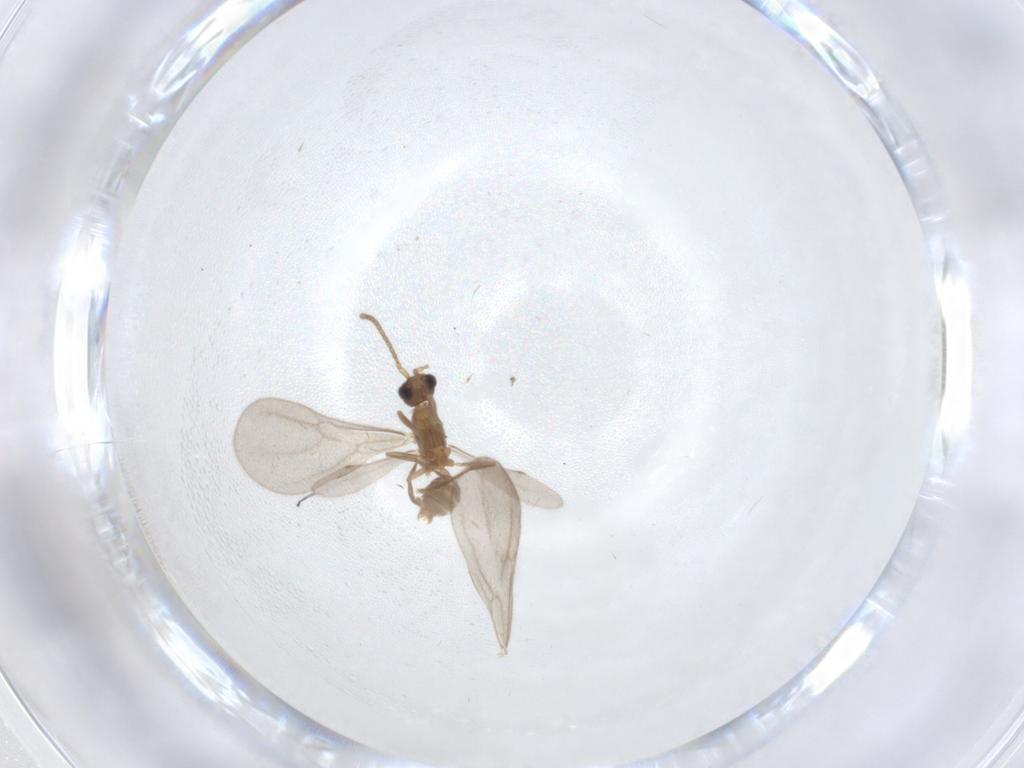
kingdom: Animalia
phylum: Arthropoda
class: Insecta
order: Hymenoptera
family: Formicidae
